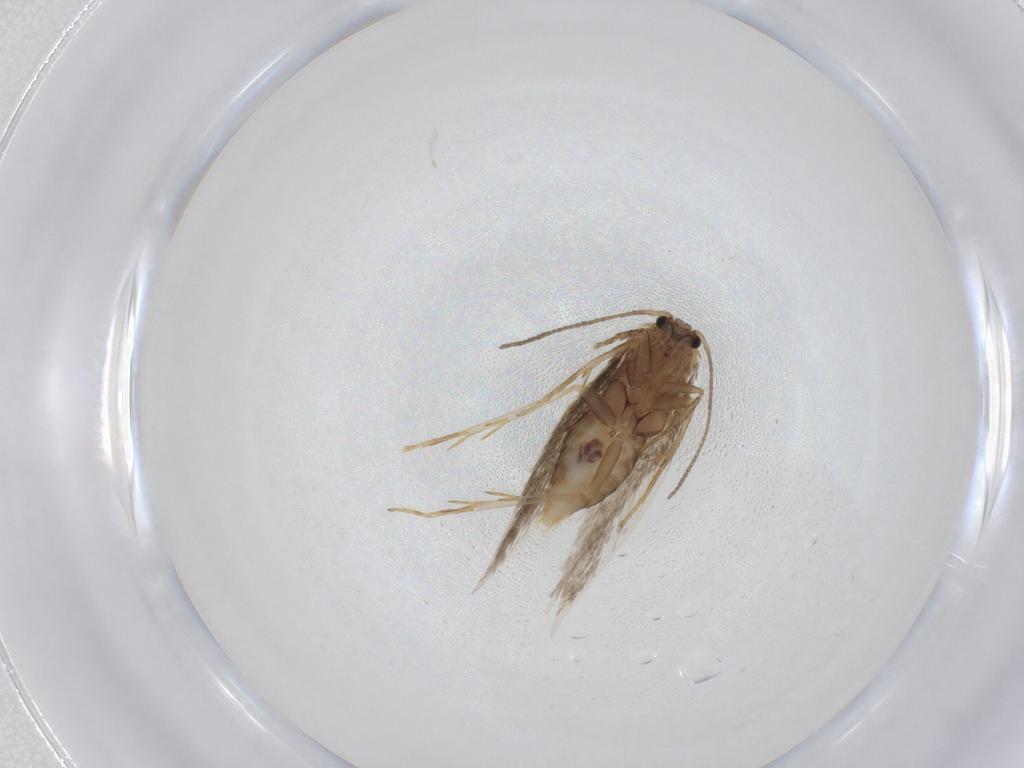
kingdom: Animalia
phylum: Arthropoda
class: Insecta
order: Lepidoptera
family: Nepticulidae
